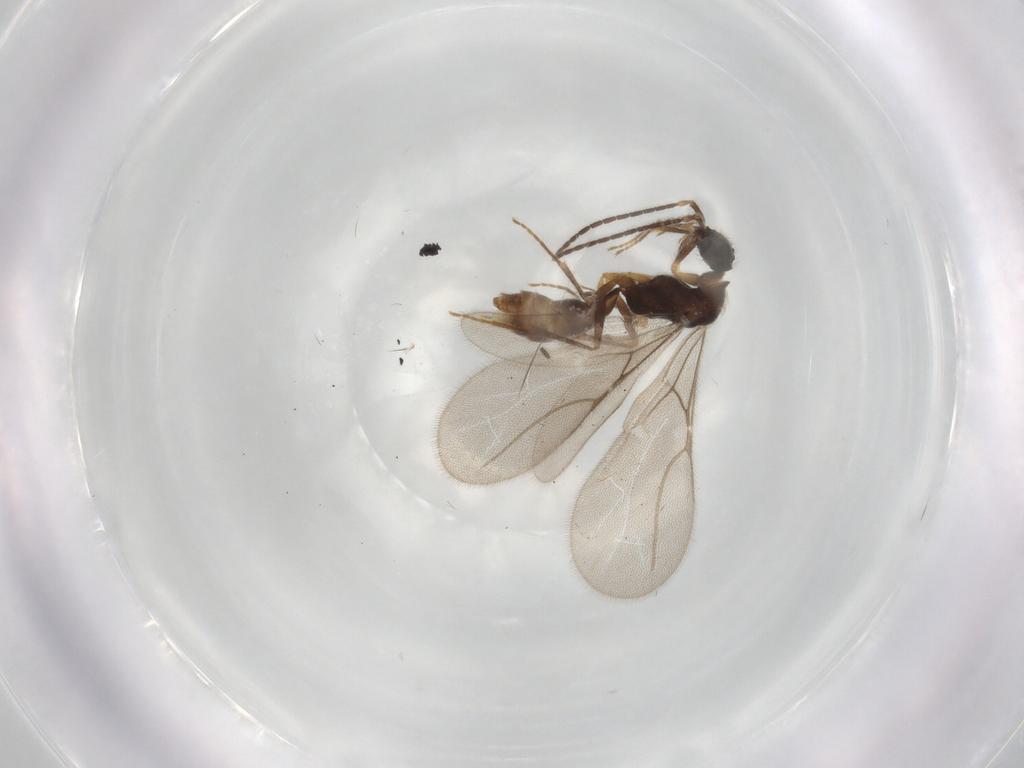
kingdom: Animalia
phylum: Arthropoda
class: Insecta
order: Hymenoptera
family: Bethylidae
